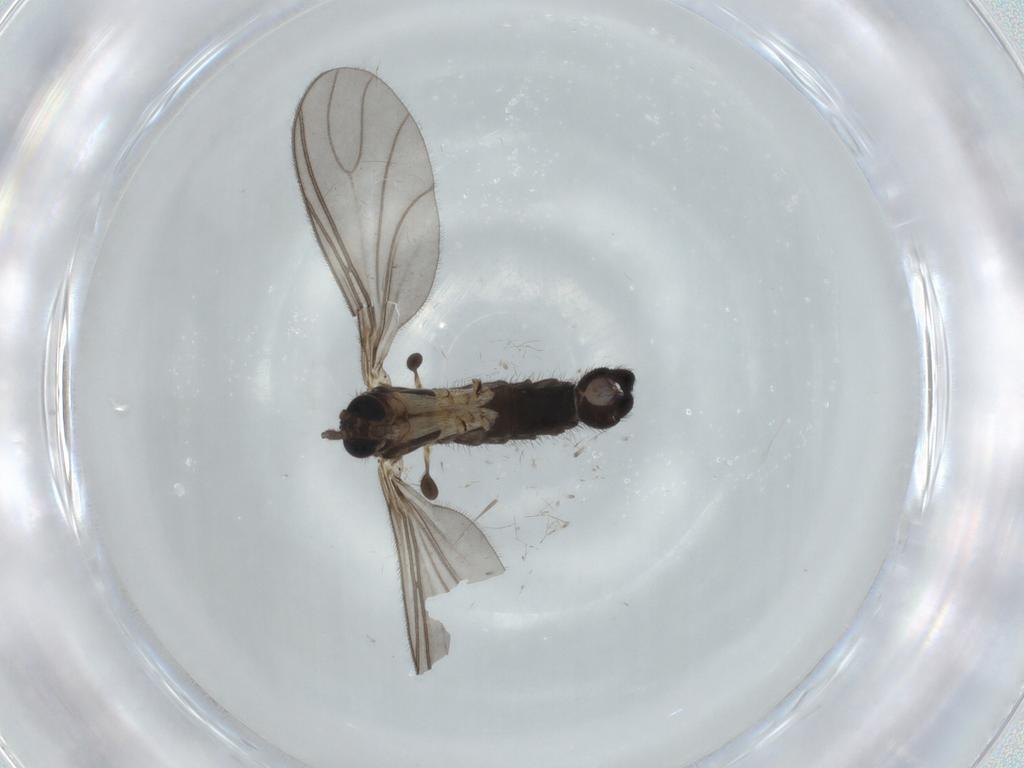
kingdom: Animalia
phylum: Arthropoda
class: Insecta
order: Diptera
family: Sciaridae
